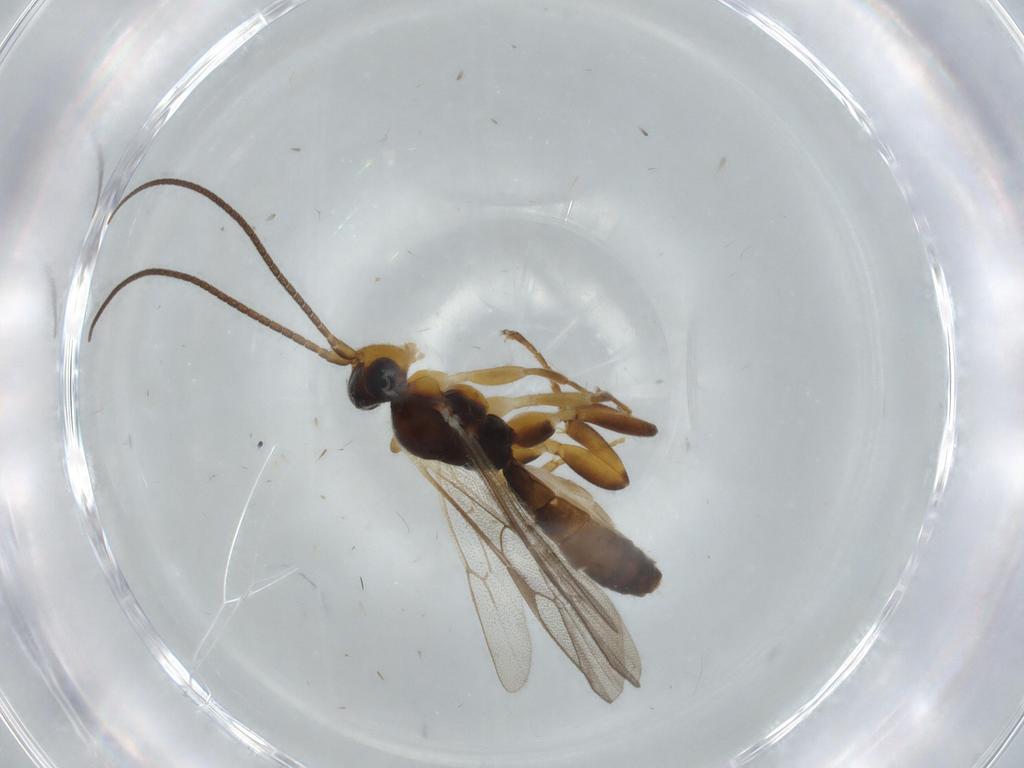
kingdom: Animalia
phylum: Arthropoda
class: Insecta
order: Hymenoptera
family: Ichneumonidae
